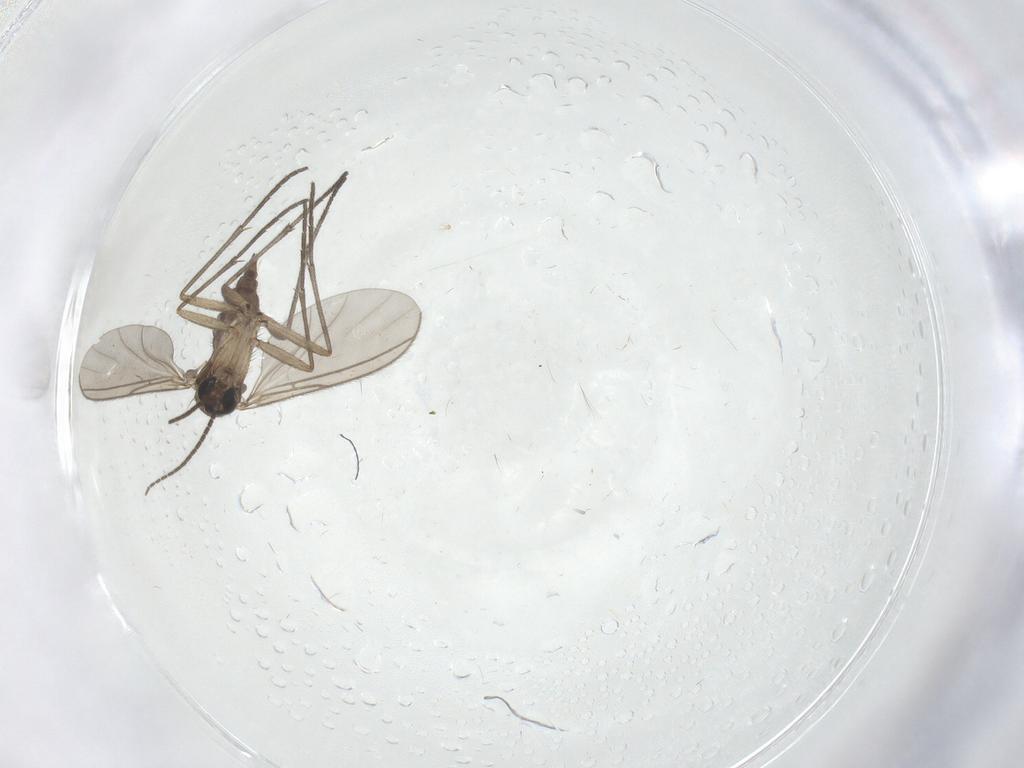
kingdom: Animalia
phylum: Arthropoda
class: Insecta
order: Diptera
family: Sciaridae
